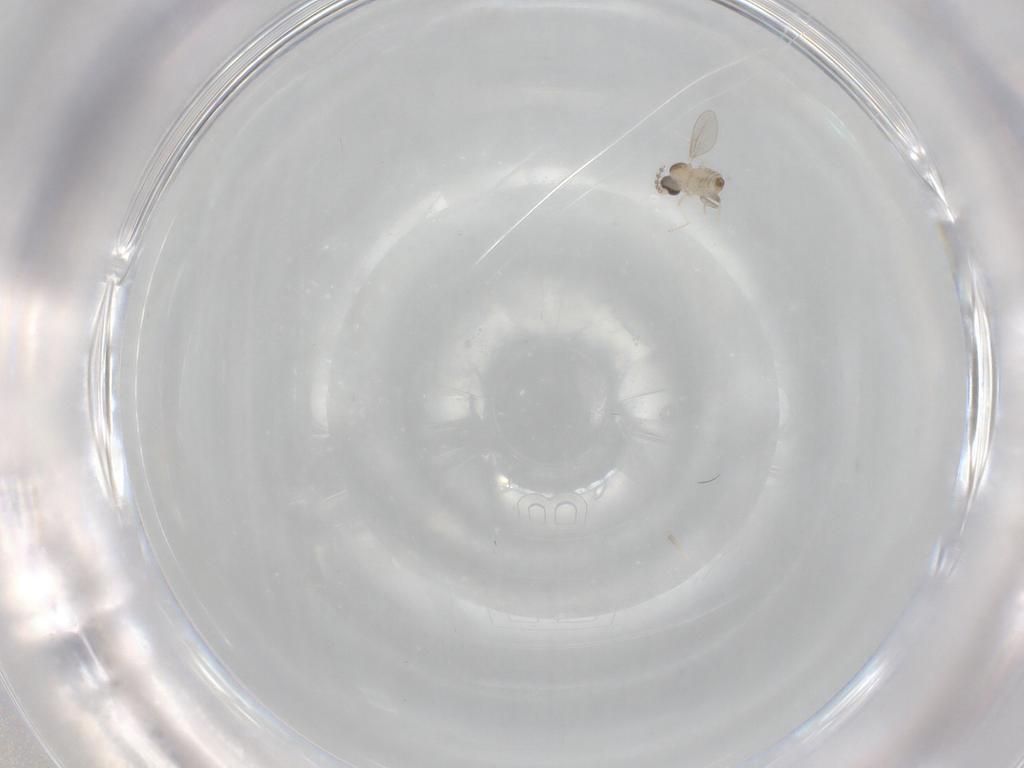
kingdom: Animalia
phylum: Arthropoda
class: Insecta
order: Diptera
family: Cecidomyiidae
